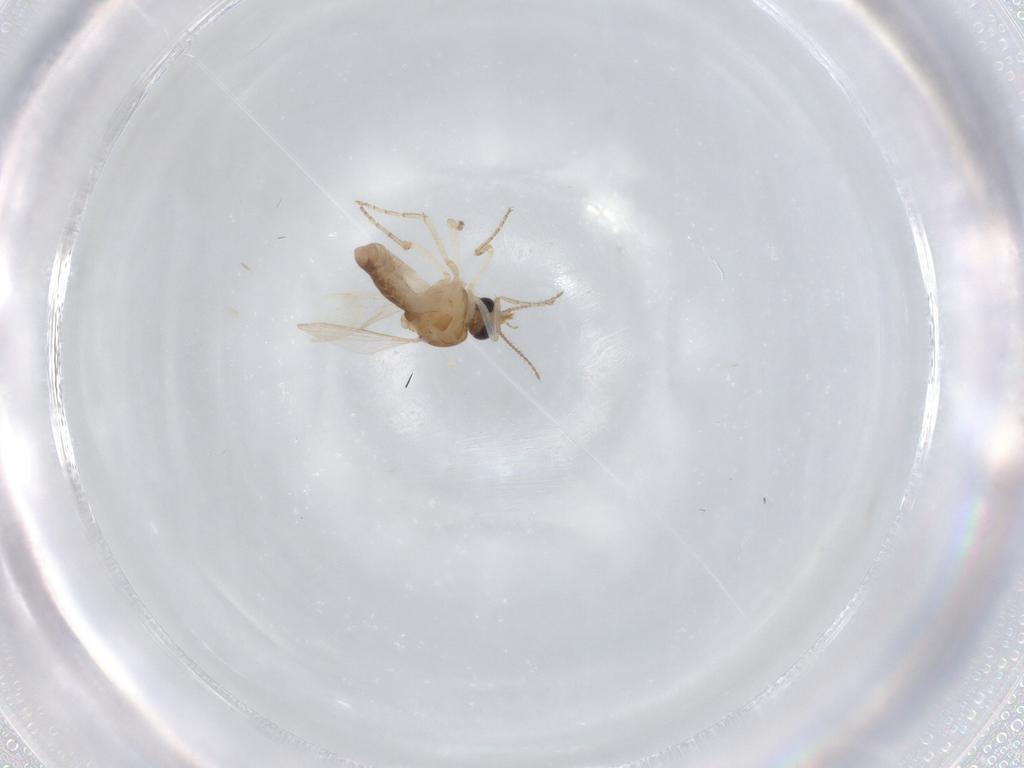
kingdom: Animalia
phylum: Arthropoda
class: Insecta
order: Diptera
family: Ceratopogonidae
